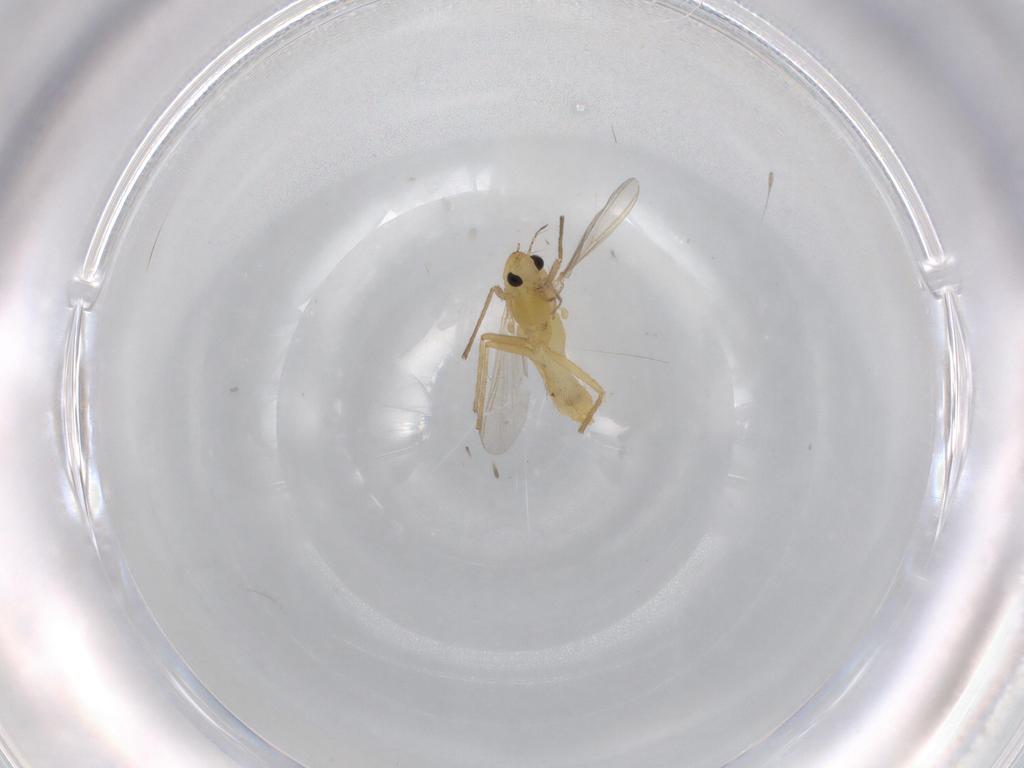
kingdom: Animalia
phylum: Arthropoda
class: Insecta
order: Diptera
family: Chironomidae
